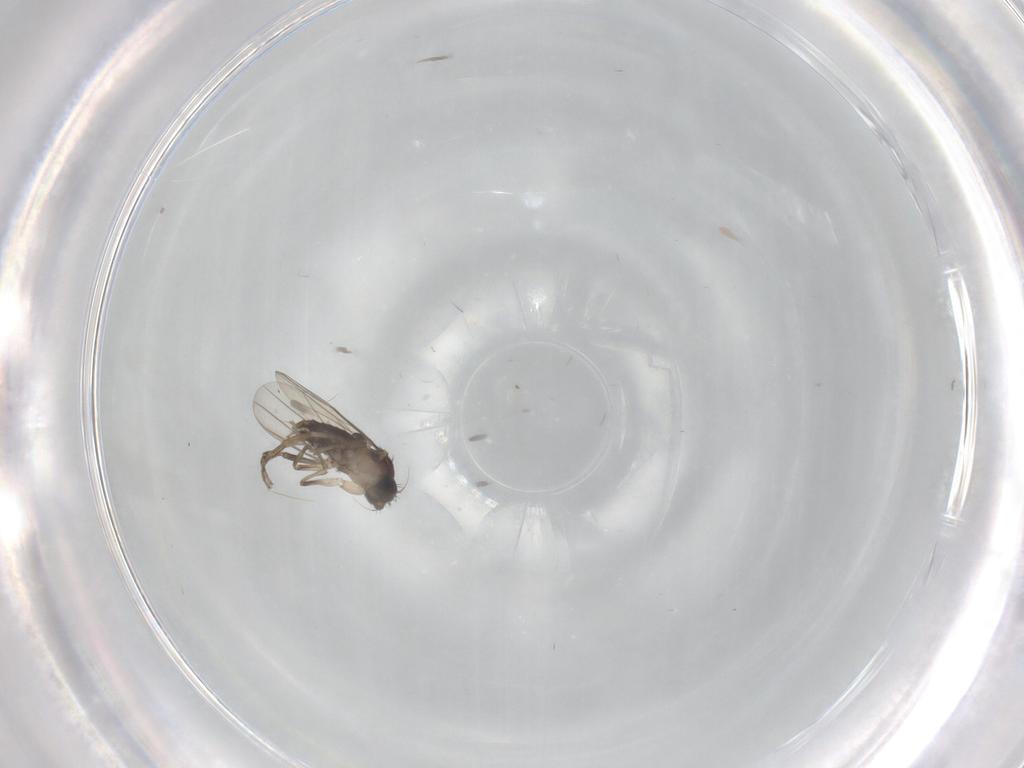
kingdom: Animalia
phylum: Arthropoda
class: Insecta
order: Diptera
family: Phoridae
